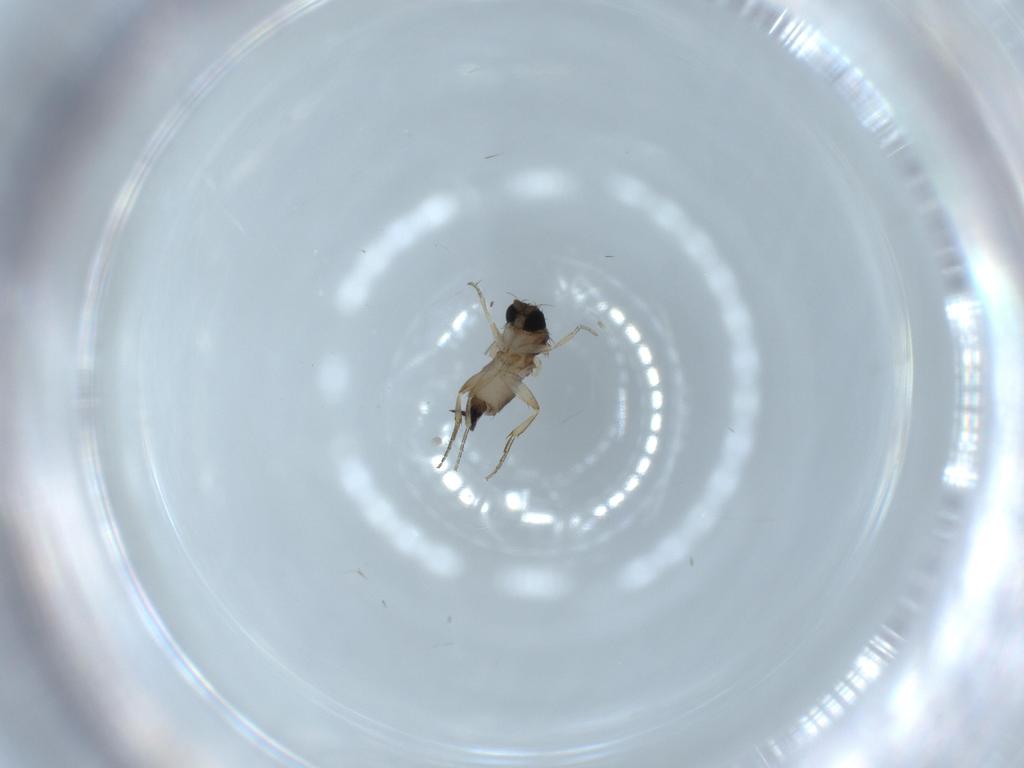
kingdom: Animalia
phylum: Arthropoda
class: Insecta
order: Diptera
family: Phoridae
